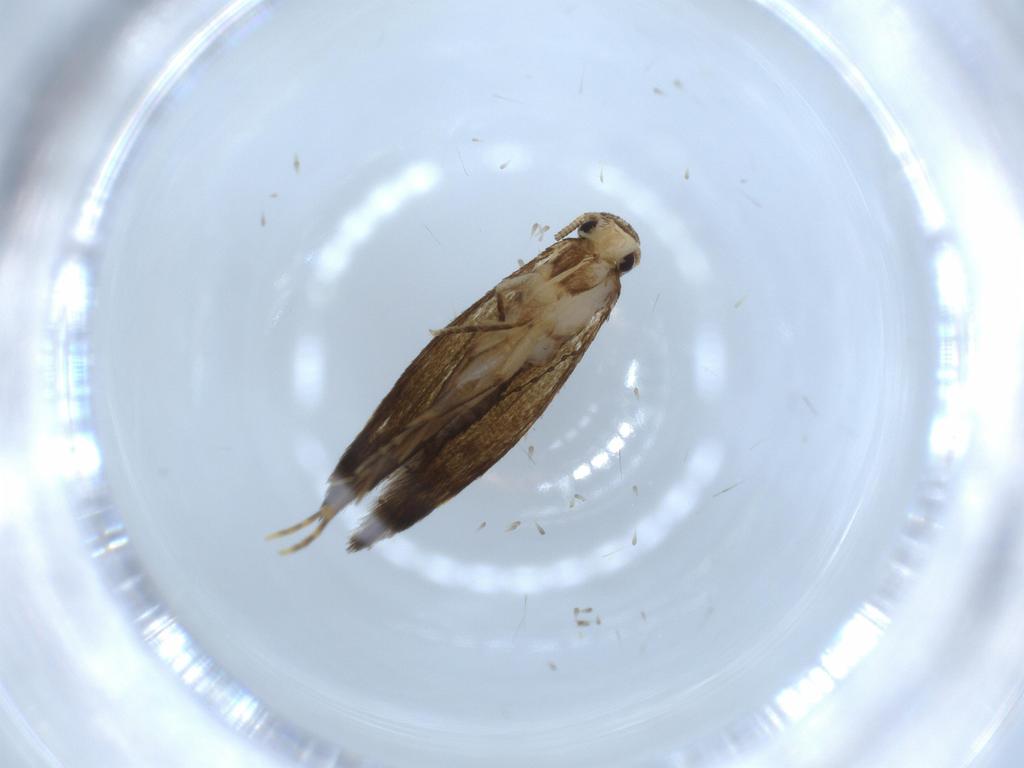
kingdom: Animalia
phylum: Arthropoda
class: Insecta
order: Lepidoptera
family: Tineidae
